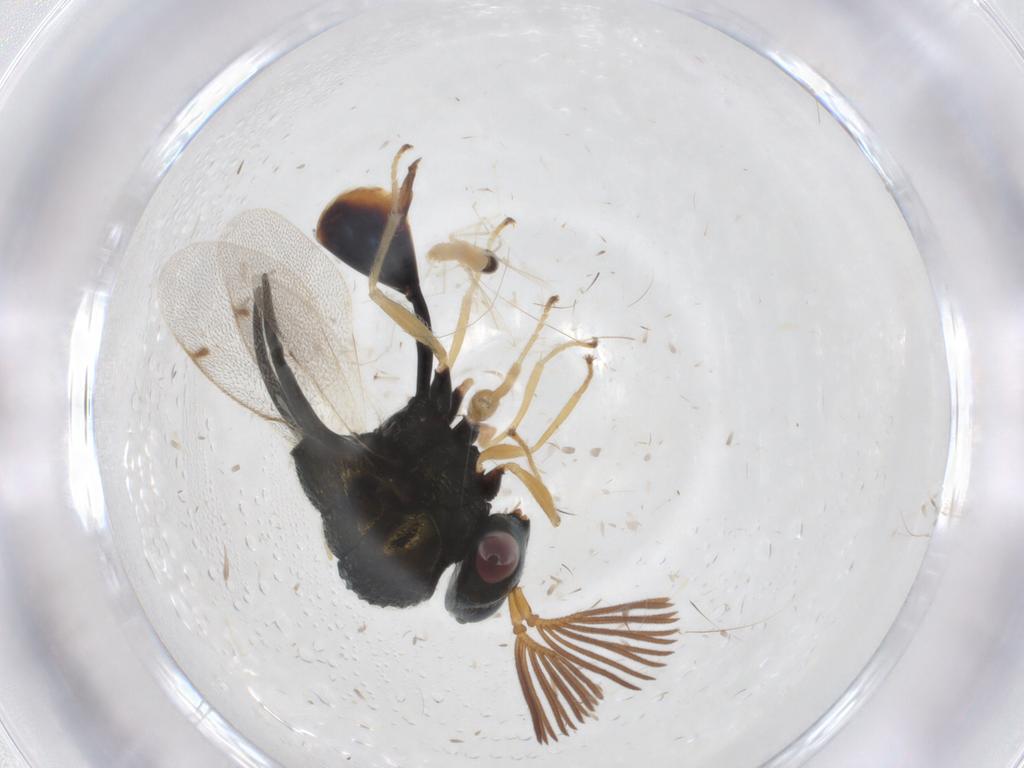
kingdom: Animalia
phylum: Arthropoda
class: Insecta
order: Diptera
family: Cecidomyiidae
